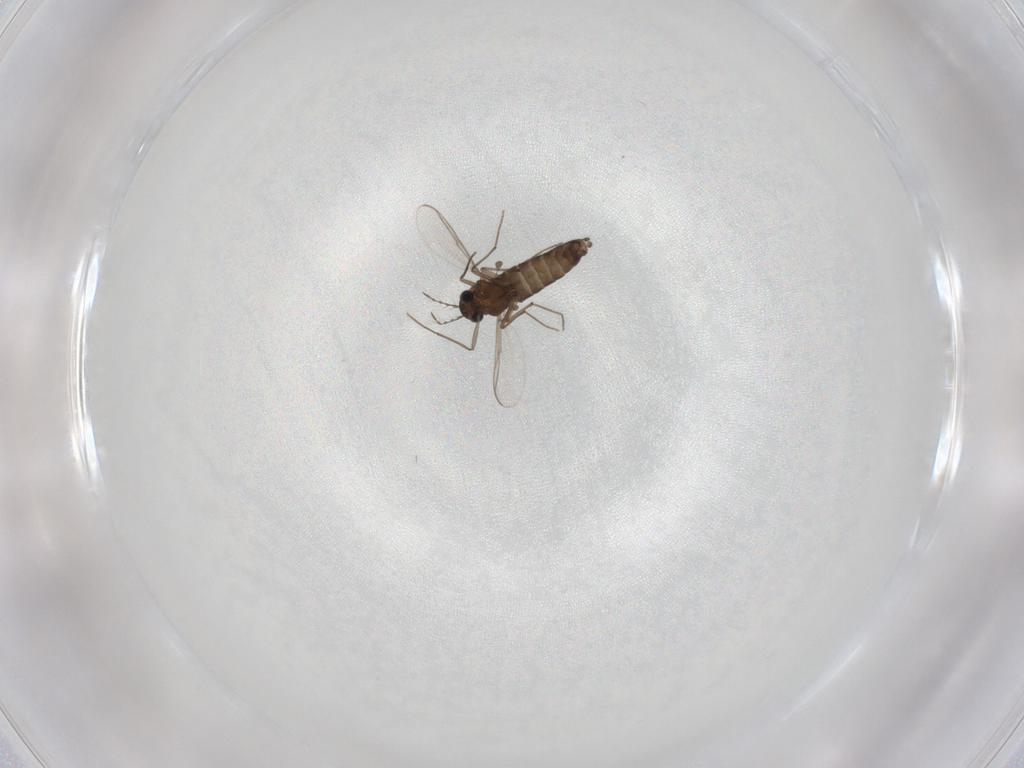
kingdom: Animalia
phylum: Arthropoda
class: Insecta
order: Diptera
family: Chironomidae
